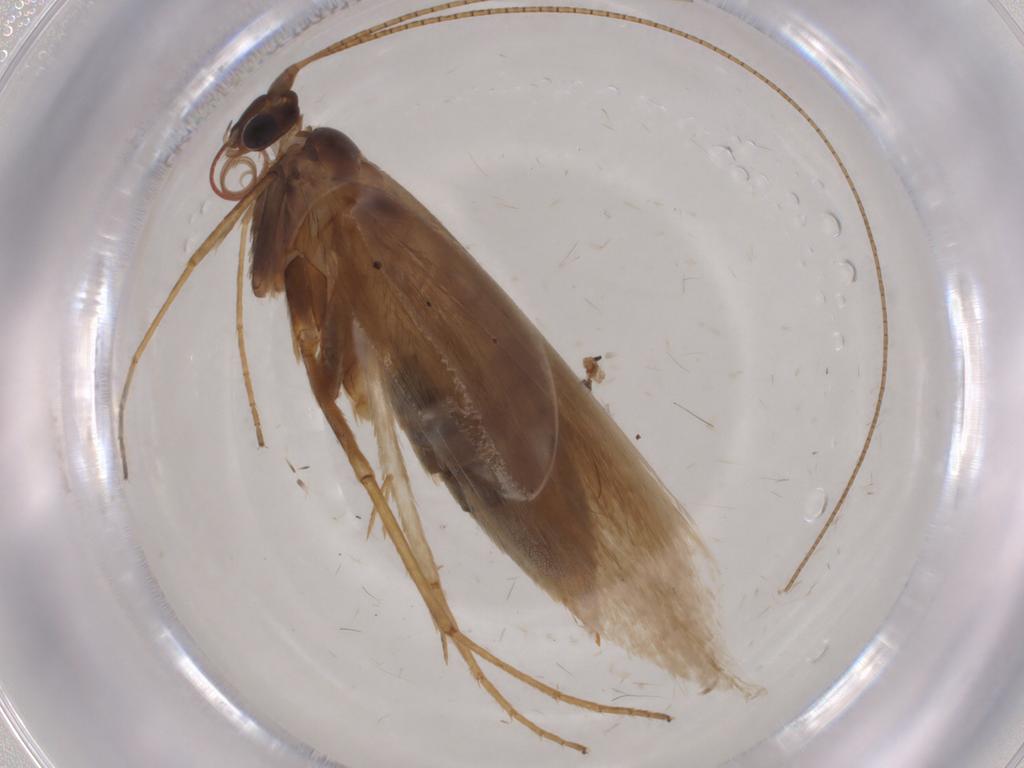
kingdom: Animalia
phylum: Arthropoda
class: Insecta
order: Lepidoptera
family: Adelidae
